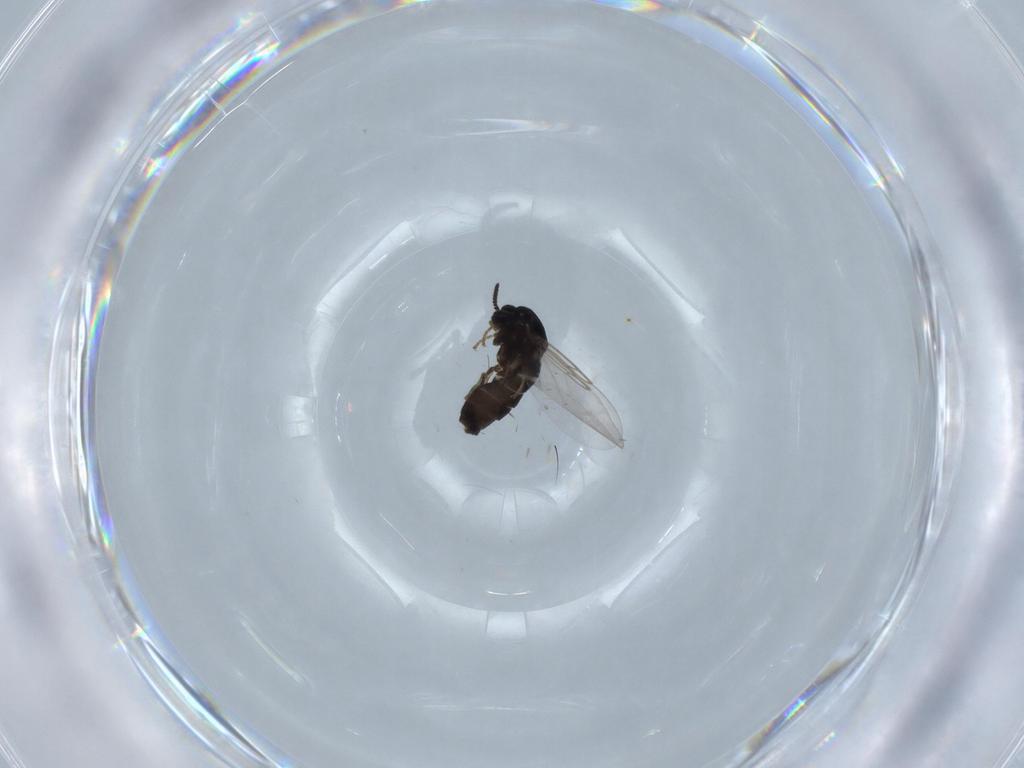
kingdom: Animalia
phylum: Arthropoda
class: Insecta
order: Diptera
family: Scatopsidae
